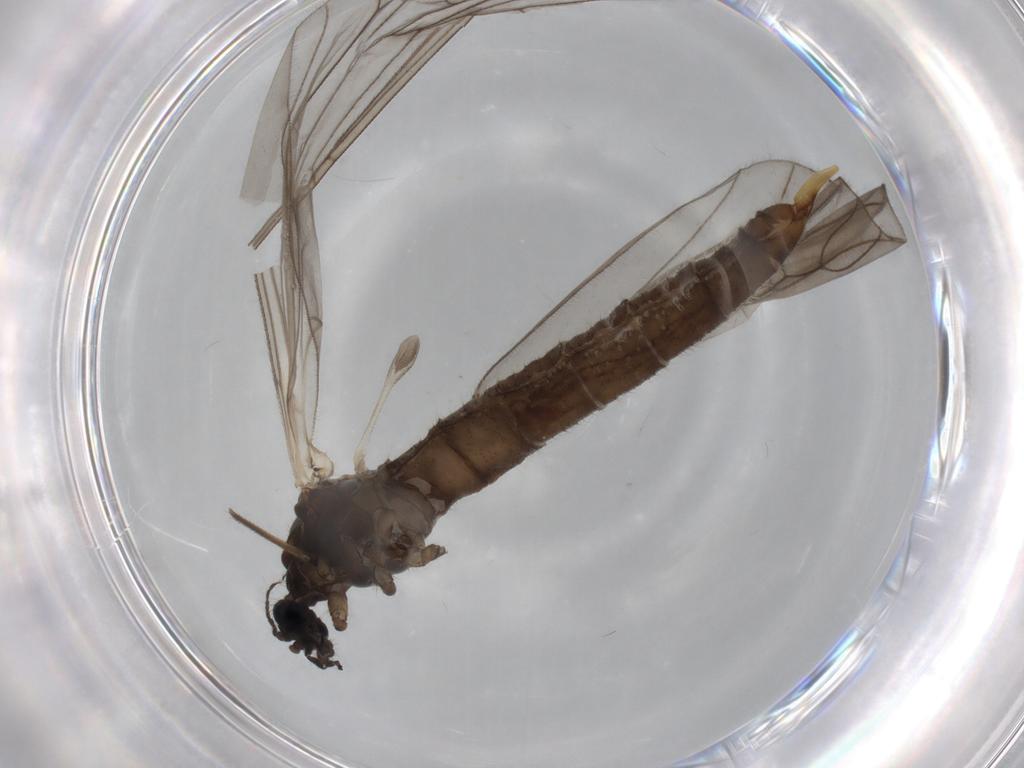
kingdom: Animalia
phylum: Arthropoda
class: Insecta
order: Diptera
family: Trichoceridae
